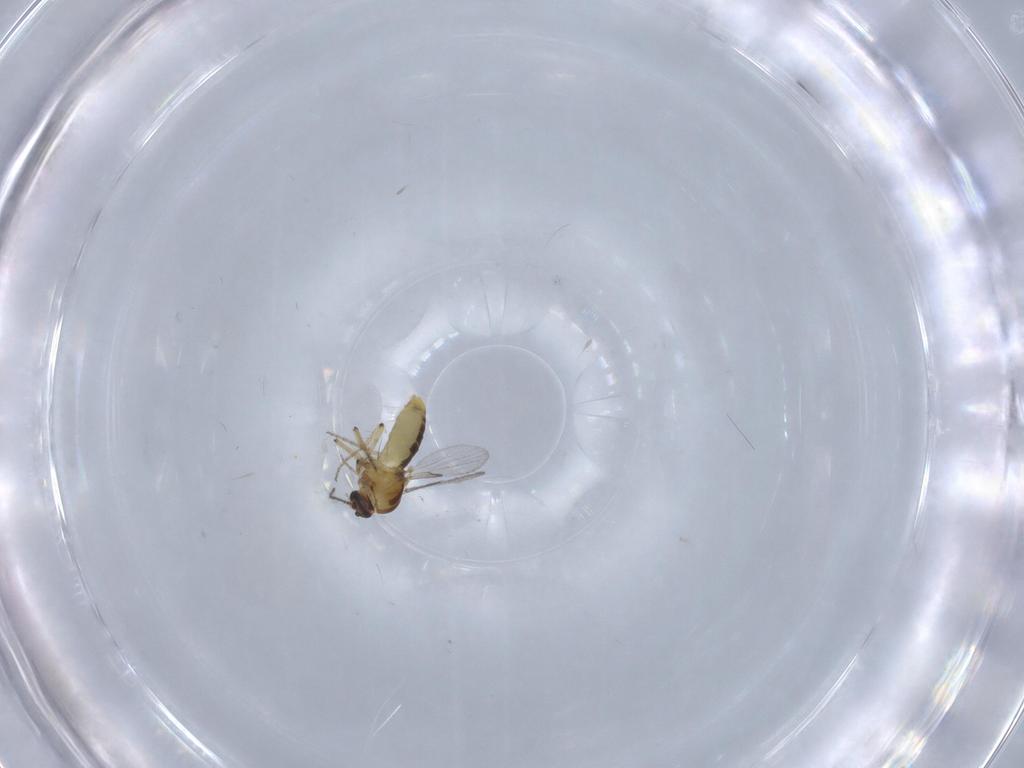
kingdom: Animalia
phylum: Arthropoda
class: Insecta
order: Diptera
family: Ceratopogonidae
